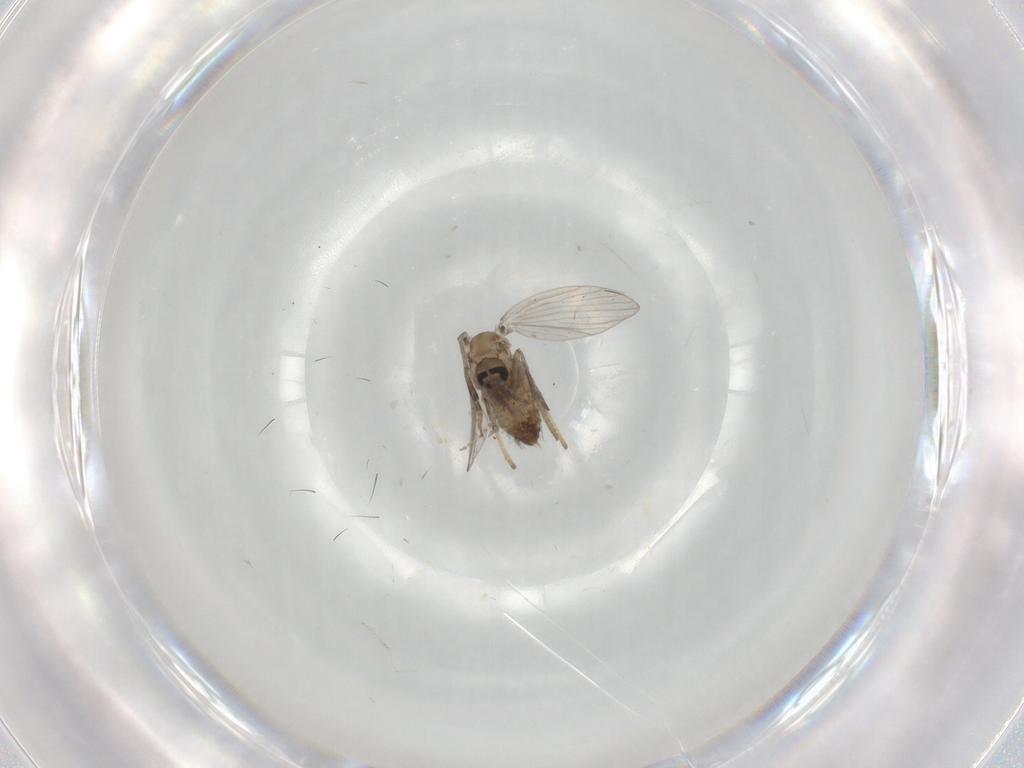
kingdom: Animalia
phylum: Arthropoda
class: Insecta
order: Diptera
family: Psychodidae
